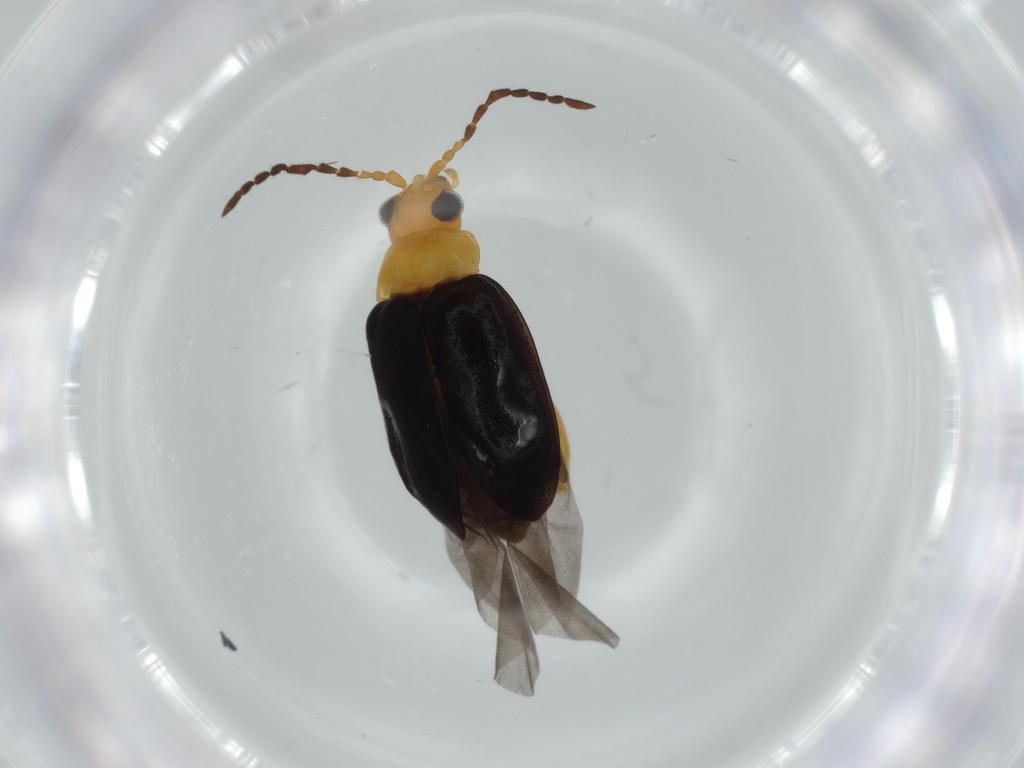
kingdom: Animalia
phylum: Arthropoda
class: Insecta
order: Coleoptera
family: Chrysomelidae
